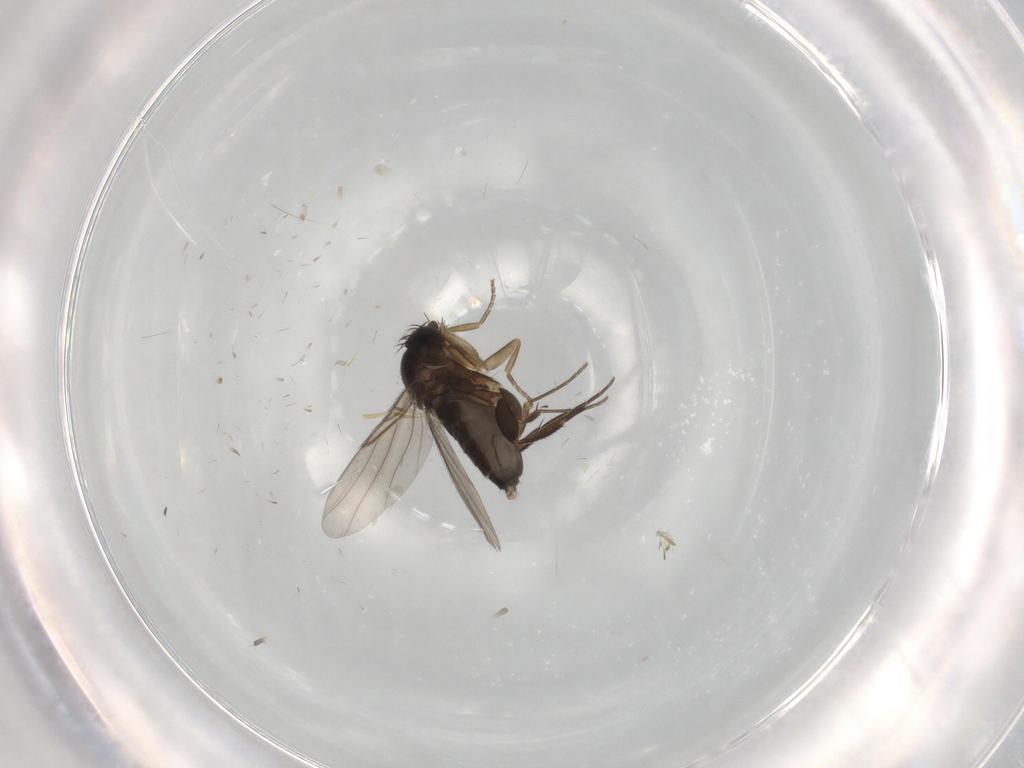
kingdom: Animalia
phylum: Arthropoda
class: Insecta
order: Diptera
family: Phoridae
